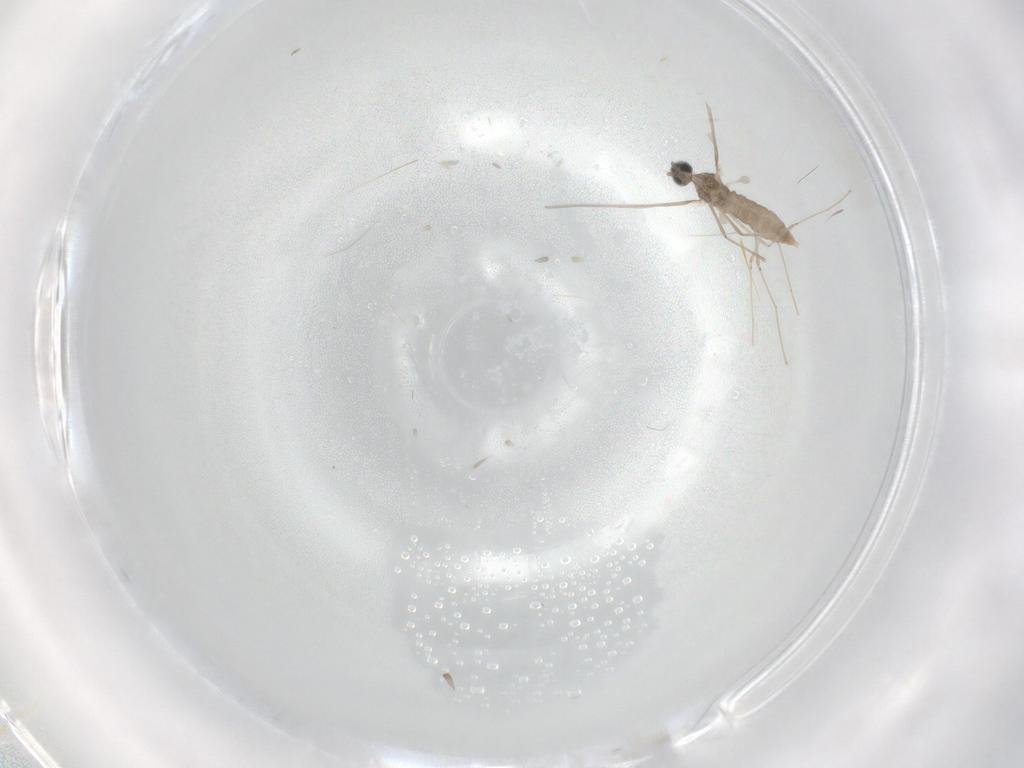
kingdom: Animalia
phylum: Arthropoda
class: Insecta
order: Diptera
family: Cecidomyiidae
